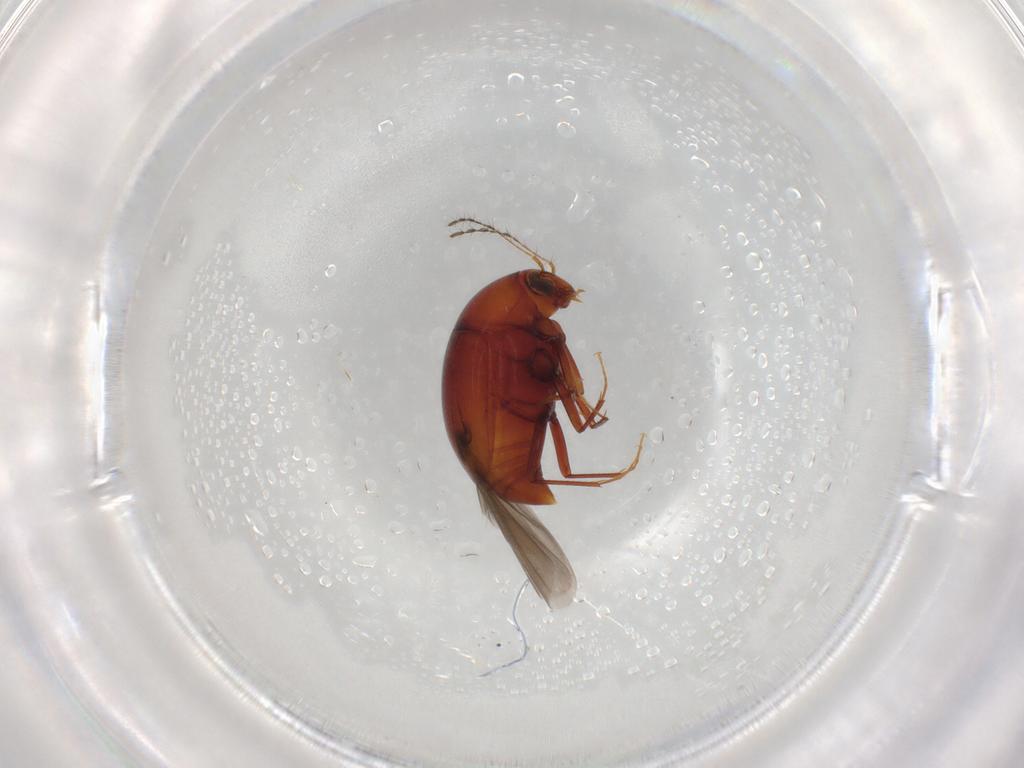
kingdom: Animalia
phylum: Arthropoda
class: Insecta
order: Coleoptera
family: Staphylinidae
